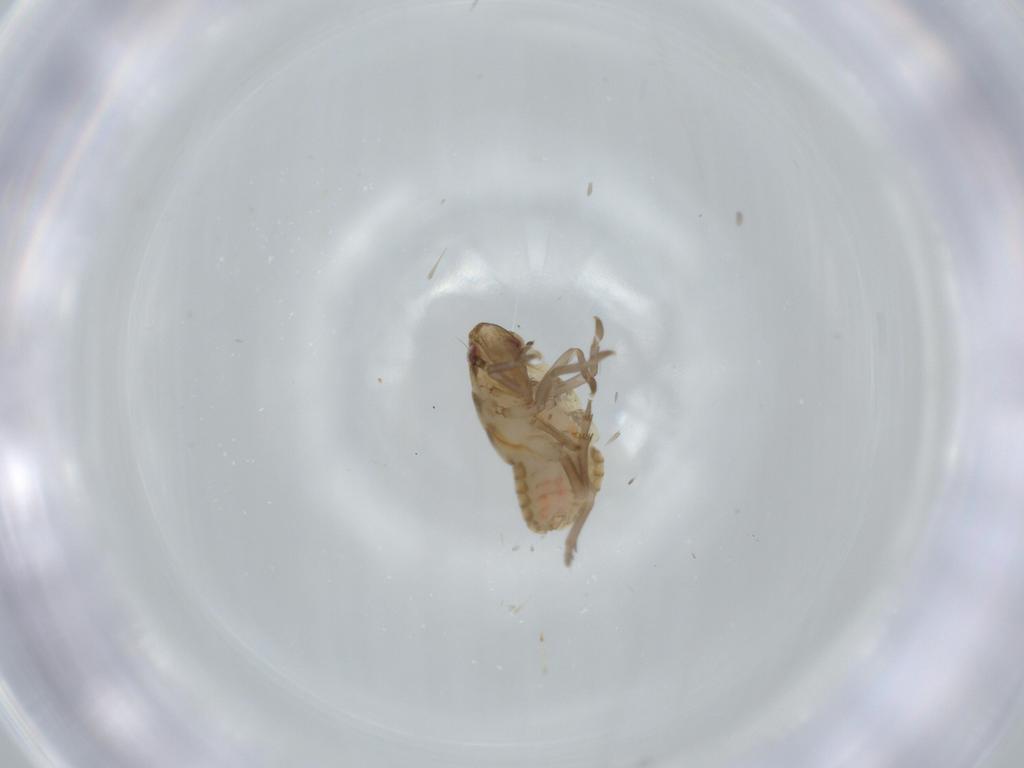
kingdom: Animalia
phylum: Arthropoda
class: Insecta
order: Hemiptera
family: Flatidae
